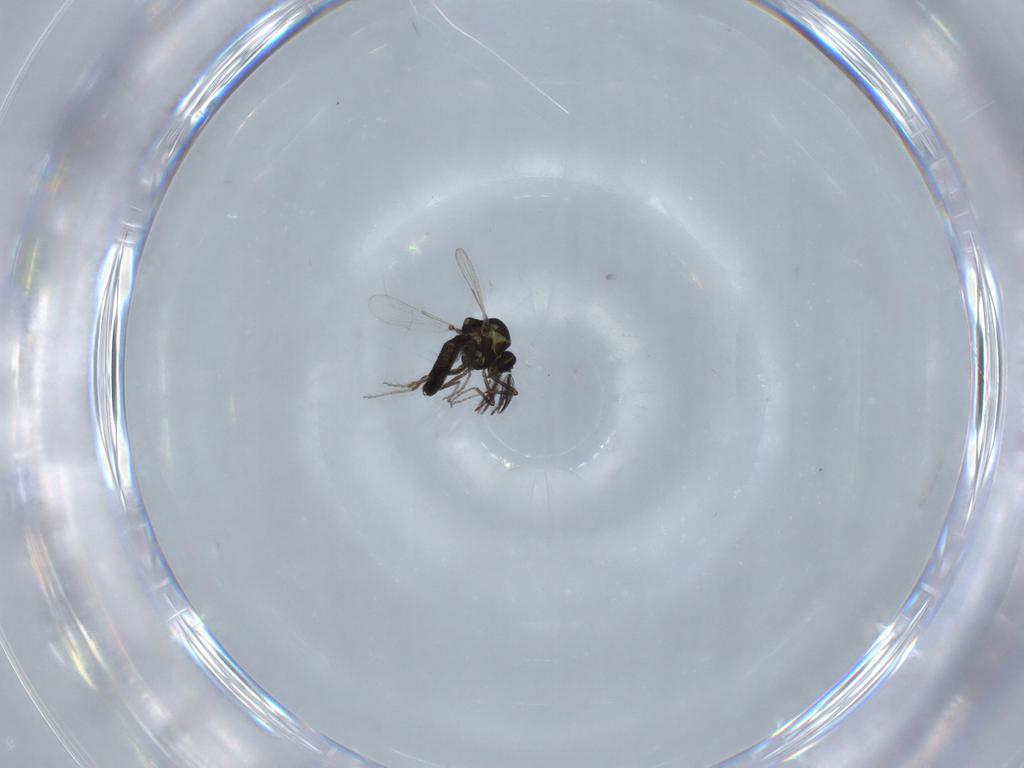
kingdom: Animalia
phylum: Arthropoda
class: Insecta
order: Diptera
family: Ceratopogonidae
